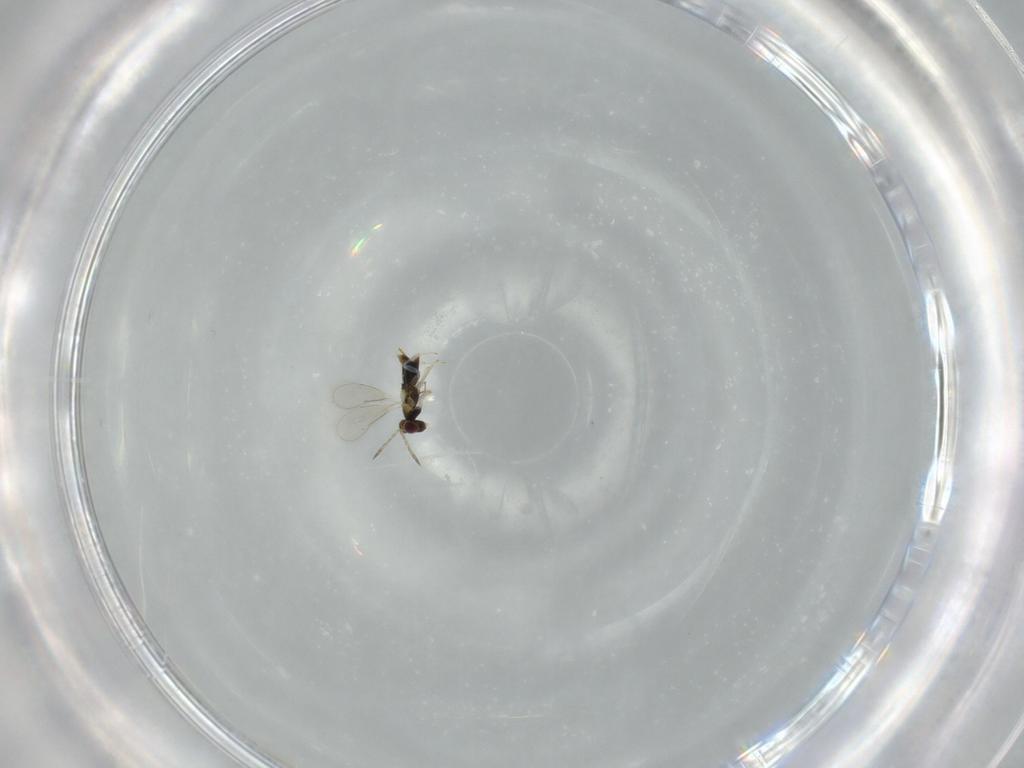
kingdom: Animalia
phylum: Arthropoda
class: Insecta
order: Hymenoptera
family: Aphelinidae
